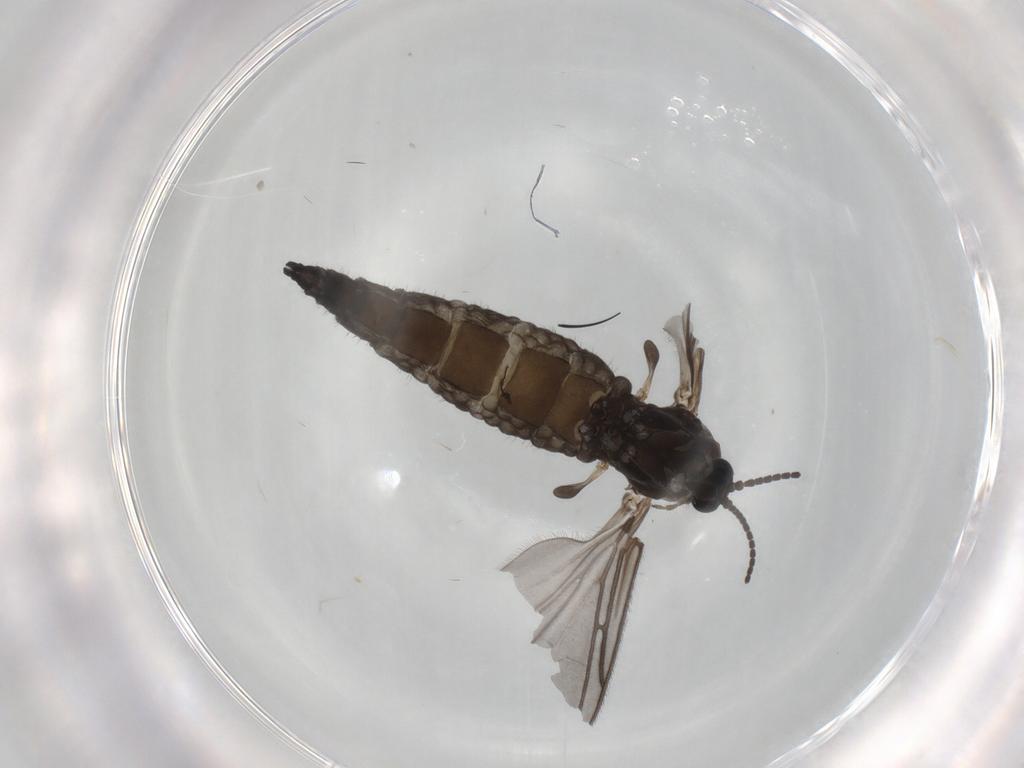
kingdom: Animalia
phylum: Arthropoda
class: Insecta
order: Diptera
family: Sciaridae
